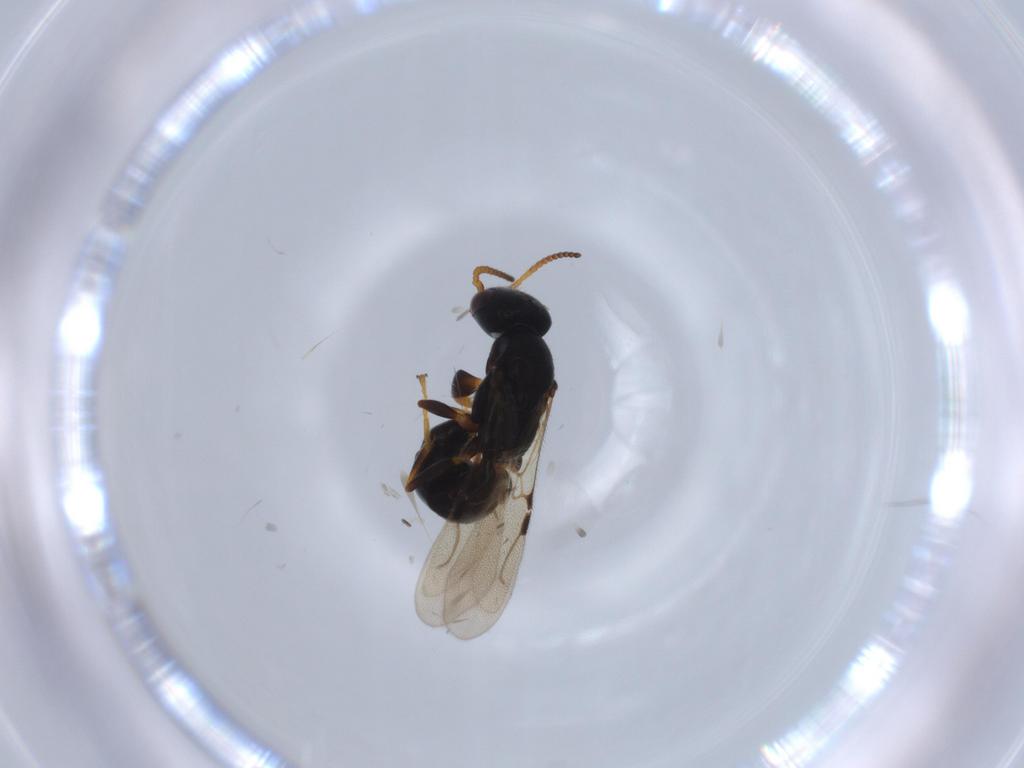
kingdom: Animalia
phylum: Arthropoda
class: Insecta
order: Hymenoptera
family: Bethylidae
